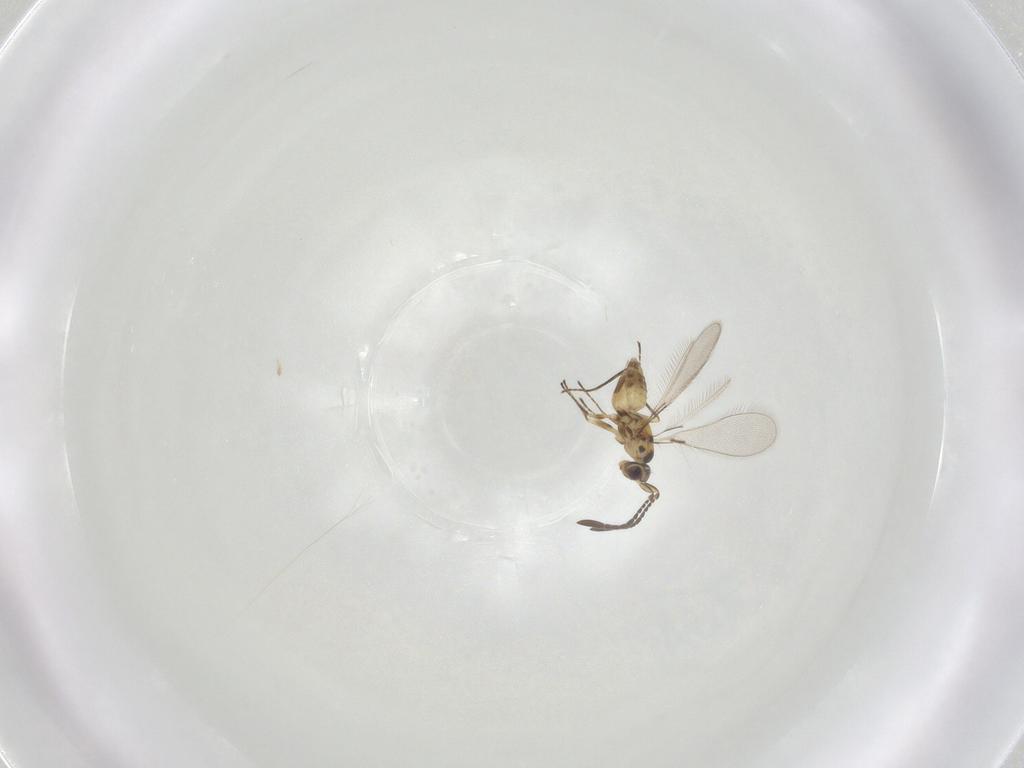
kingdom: Animalia
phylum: Arthropoda
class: Insecta
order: Hymenoptera
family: Mymaridae
